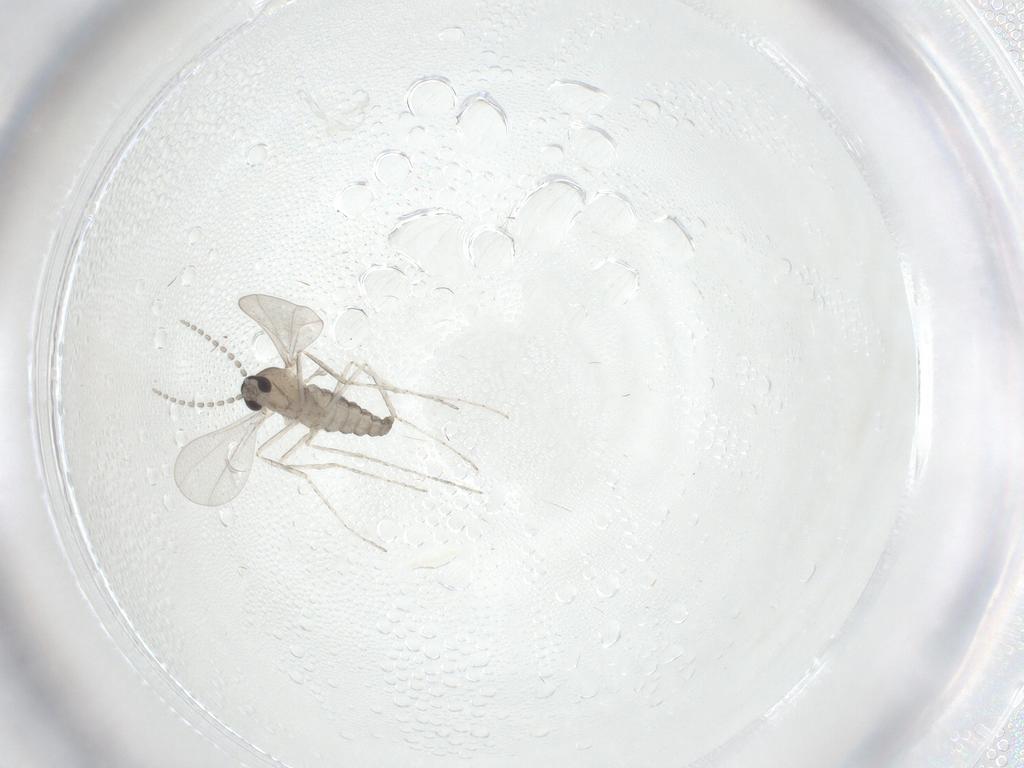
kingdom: Animalia
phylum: Arthropoda
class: Insecta
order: Diptera
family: Cecidomyiidae
